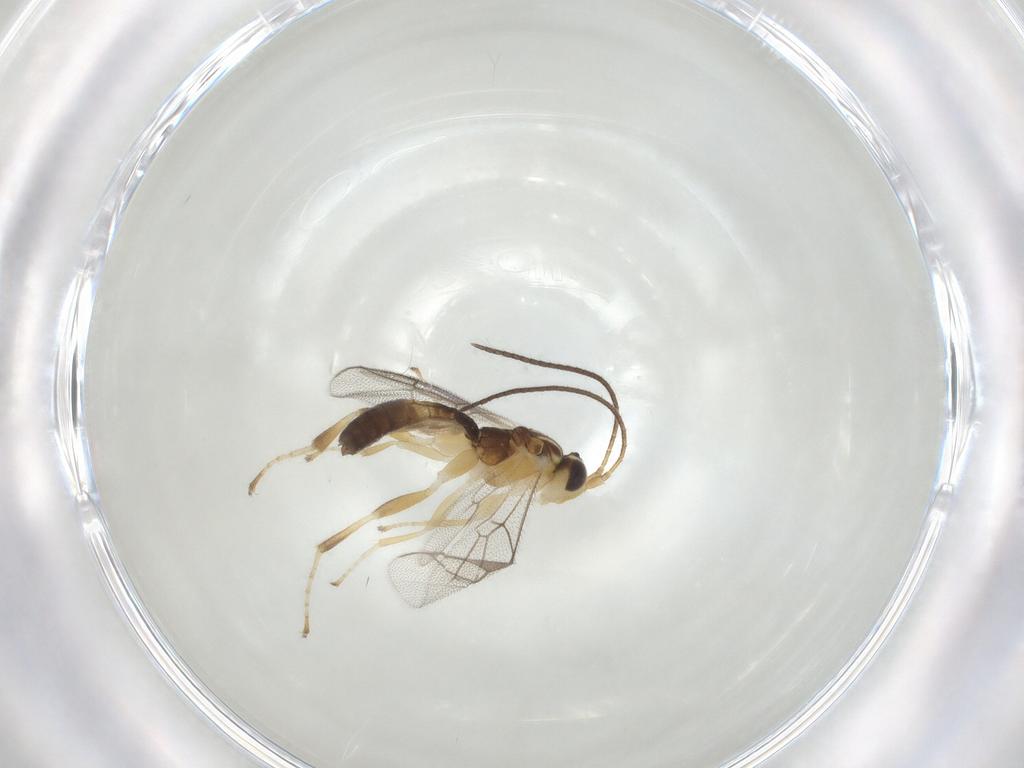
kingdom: Animalia
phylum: Arthropoda
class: Insecta
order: Hymenoptera
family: Ichneumonidae
